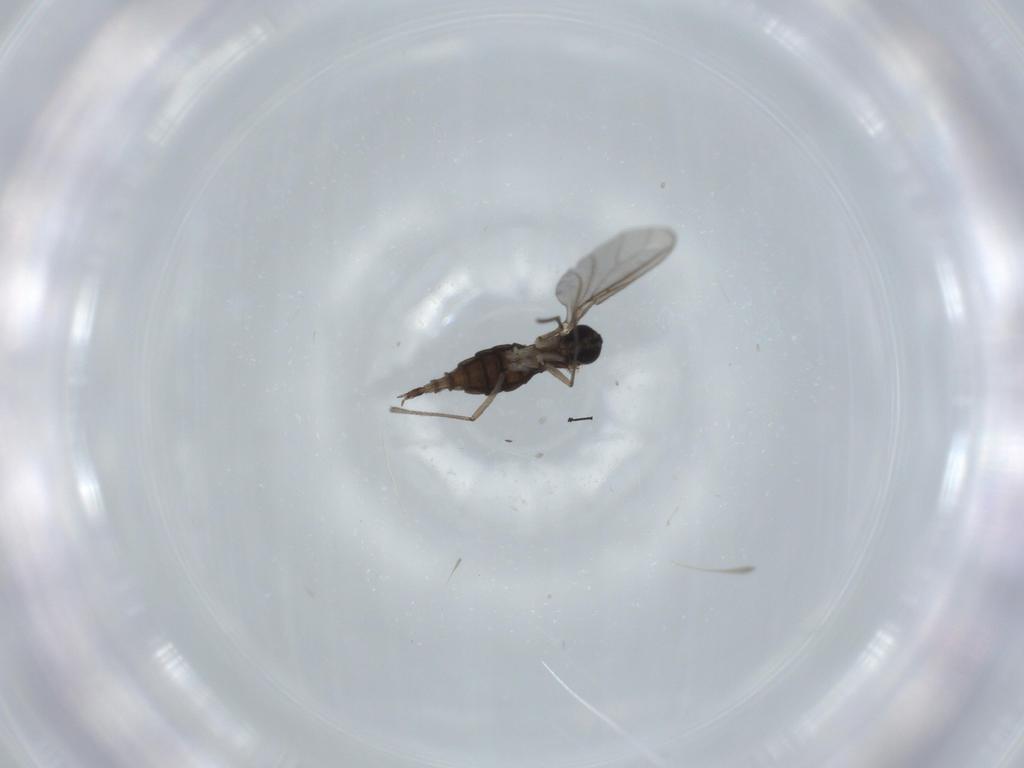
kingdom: Animalia
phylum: Arthropoda
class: Insecta
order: Diptera
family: Sciaridae
